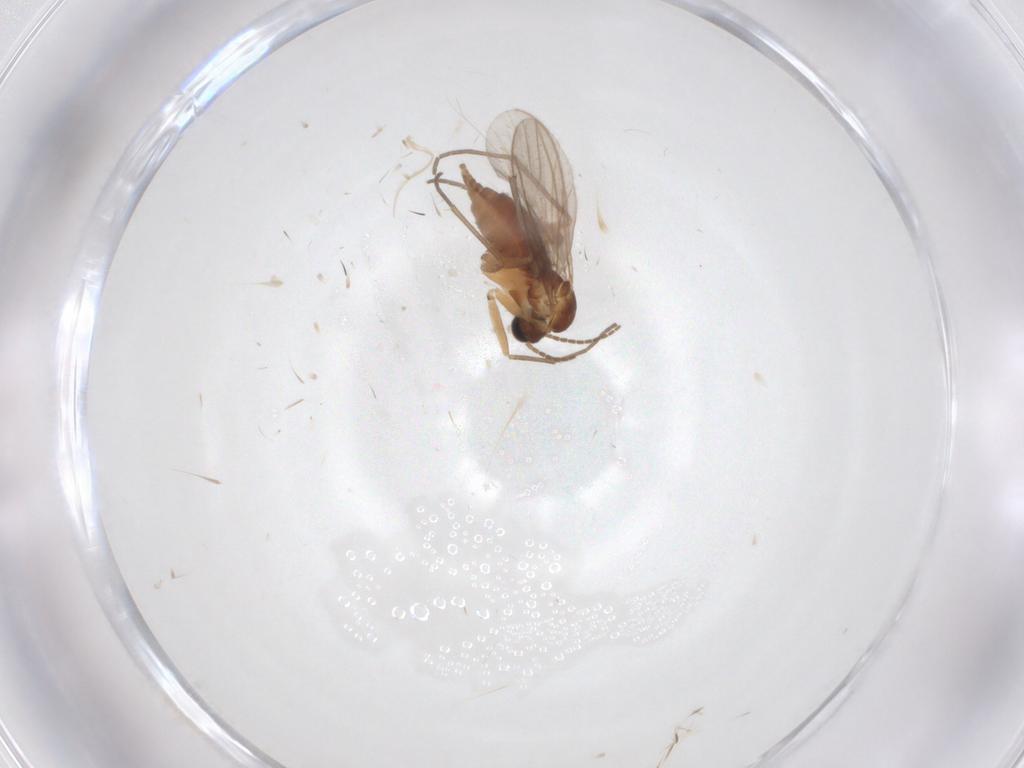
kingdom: Animalia
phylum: Arthropoda
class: Insecta
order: Diptera
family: Sciaridae
